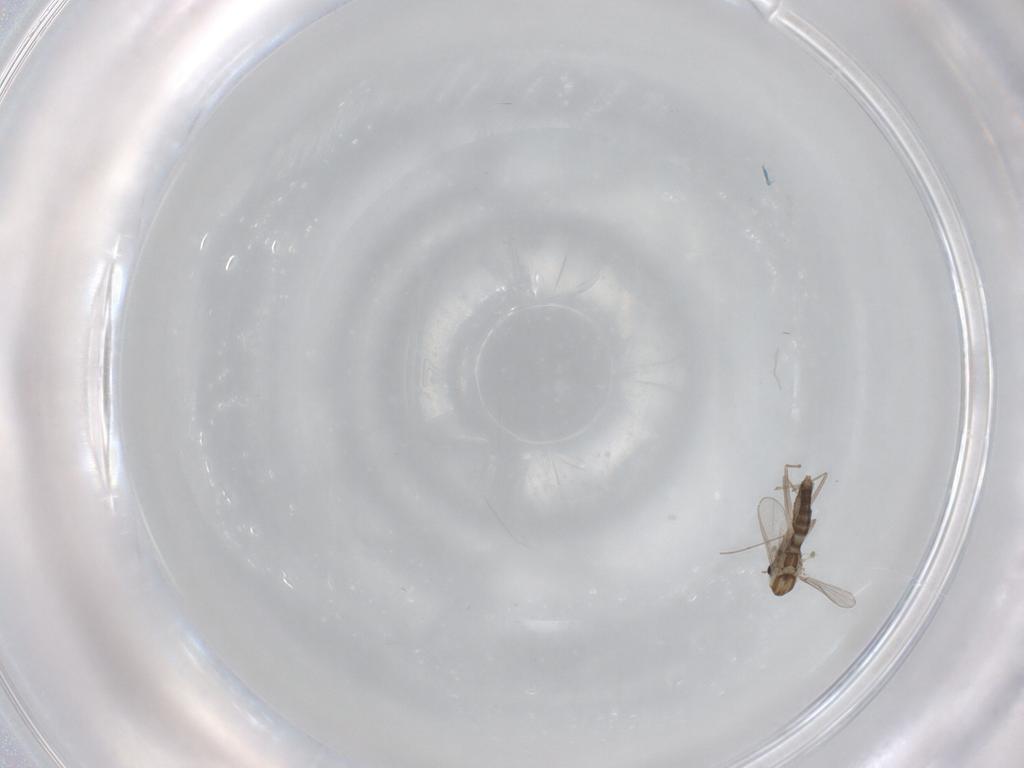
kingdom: Animalia
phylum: Arthropoda
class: Insecta
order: Diptera
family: Chironomidae
